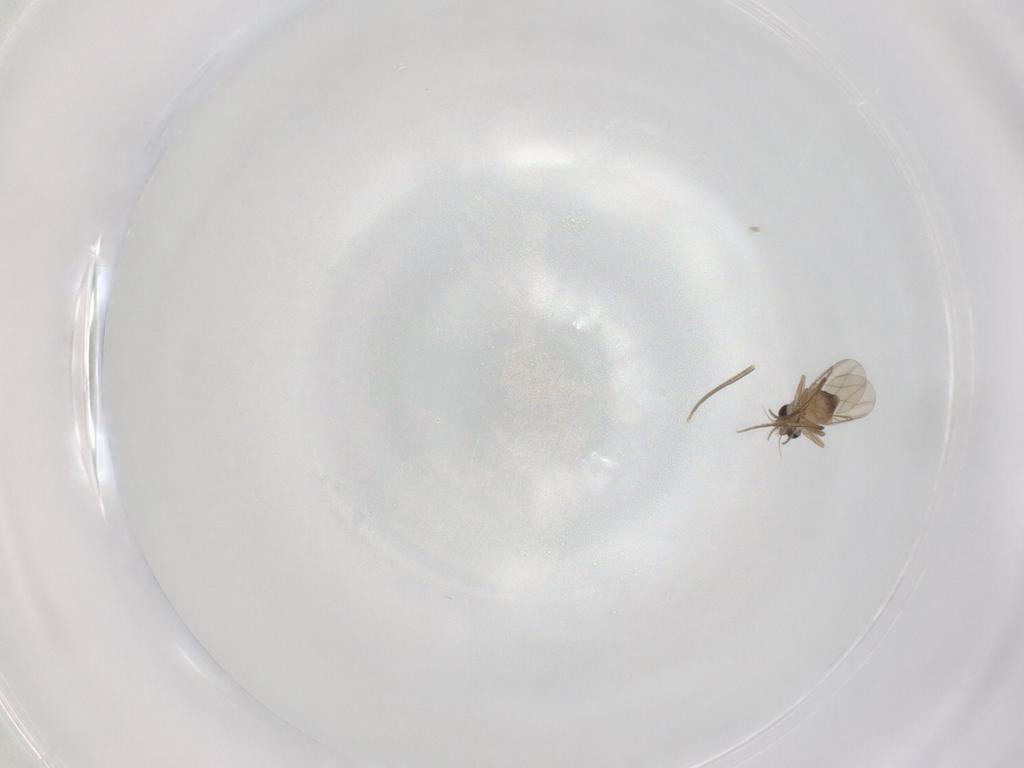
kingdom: Animalia
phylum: Arthropoda
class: Insecta
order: Diptera
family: Phoridae
